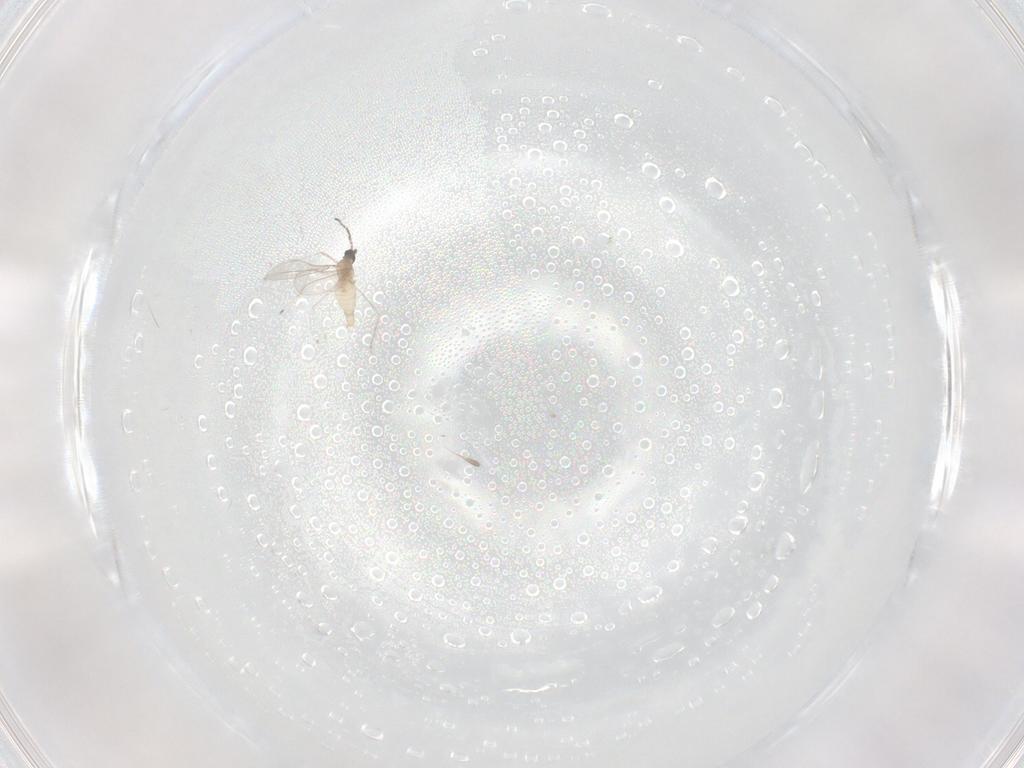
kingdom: Animalia
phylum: Arthropoda
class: Insecta
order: Diptera
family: Cecidomyiidae
